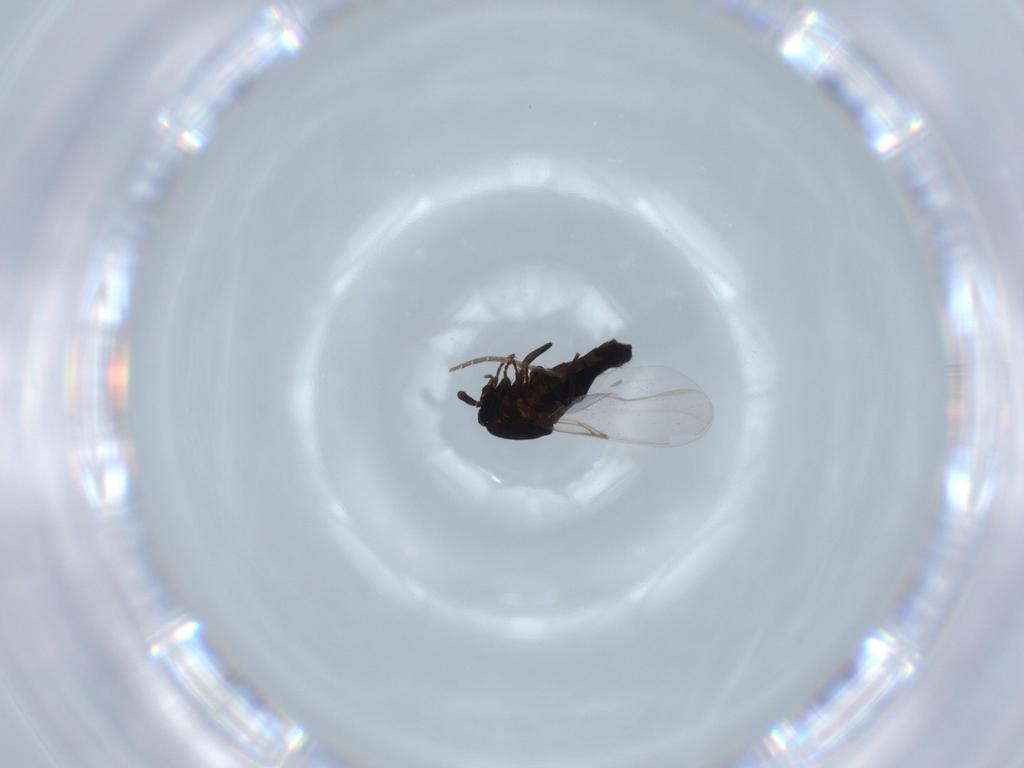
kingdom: Animalia
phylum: Arthropoda
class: Insecta
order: Diptera
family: Scatopsidae
